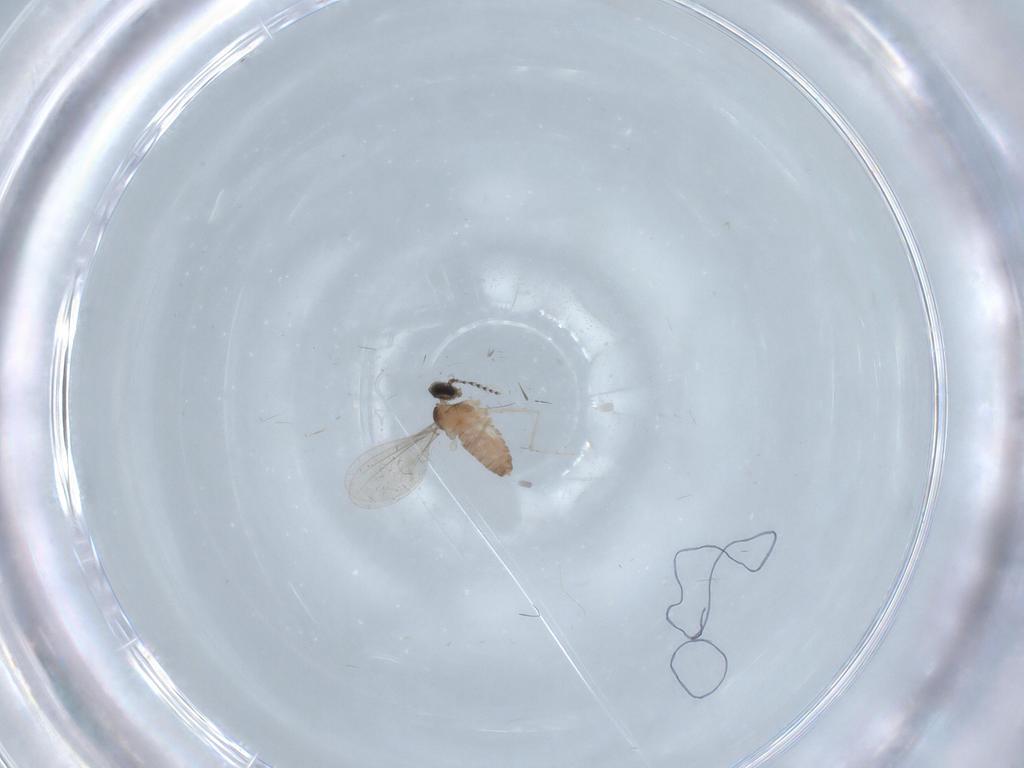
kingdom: Animalia
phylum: Arthropoda
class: Insecta
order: Diptera
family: Cecidomyiidae
